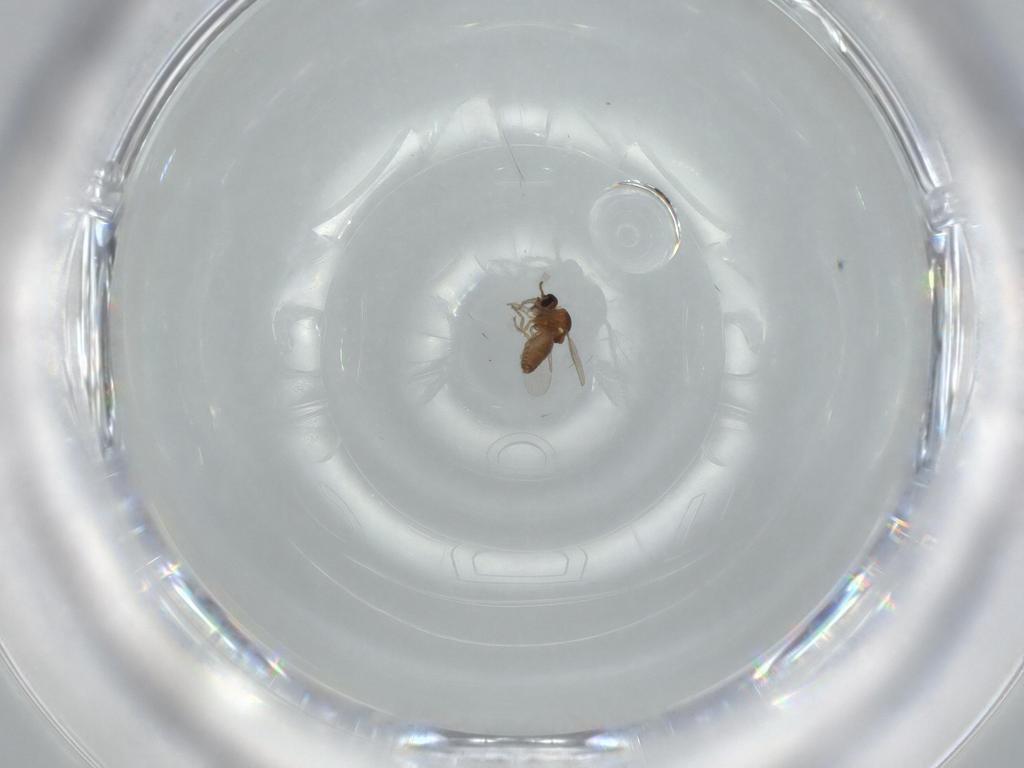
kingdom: Animalia
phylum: Arthropoda
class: Insecta
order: Diptera
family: Ceratopogonidae
